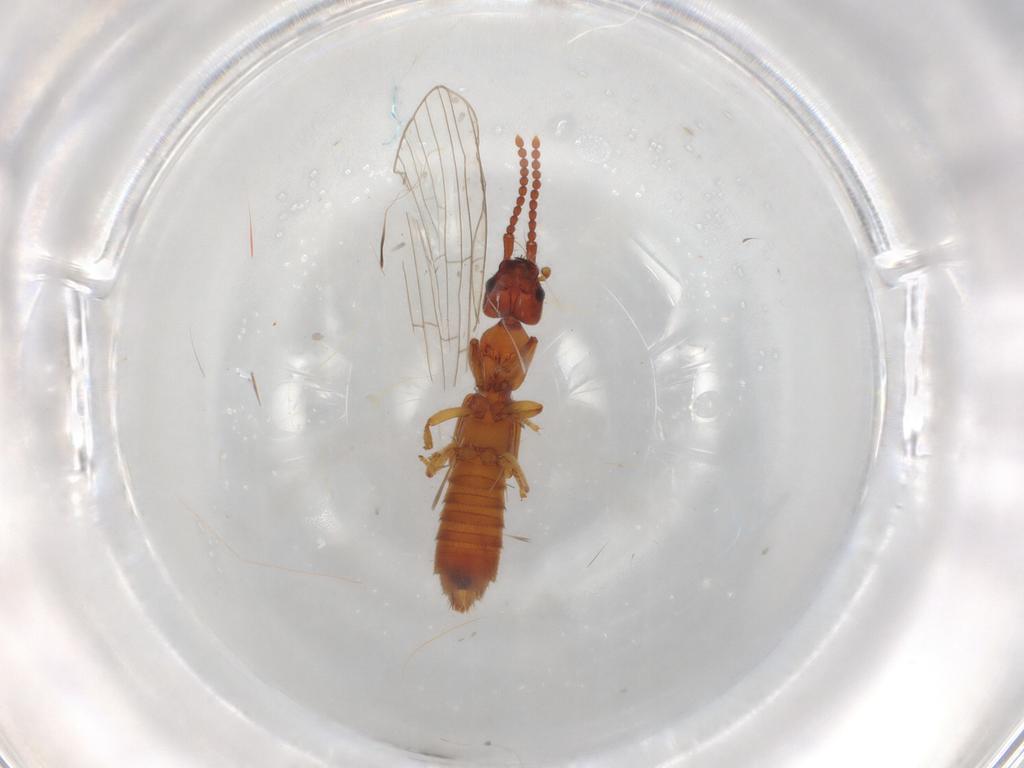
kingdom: Animalia
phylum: Arthropoda
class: Insecta
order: Coleoptera
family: Staphylinidae
